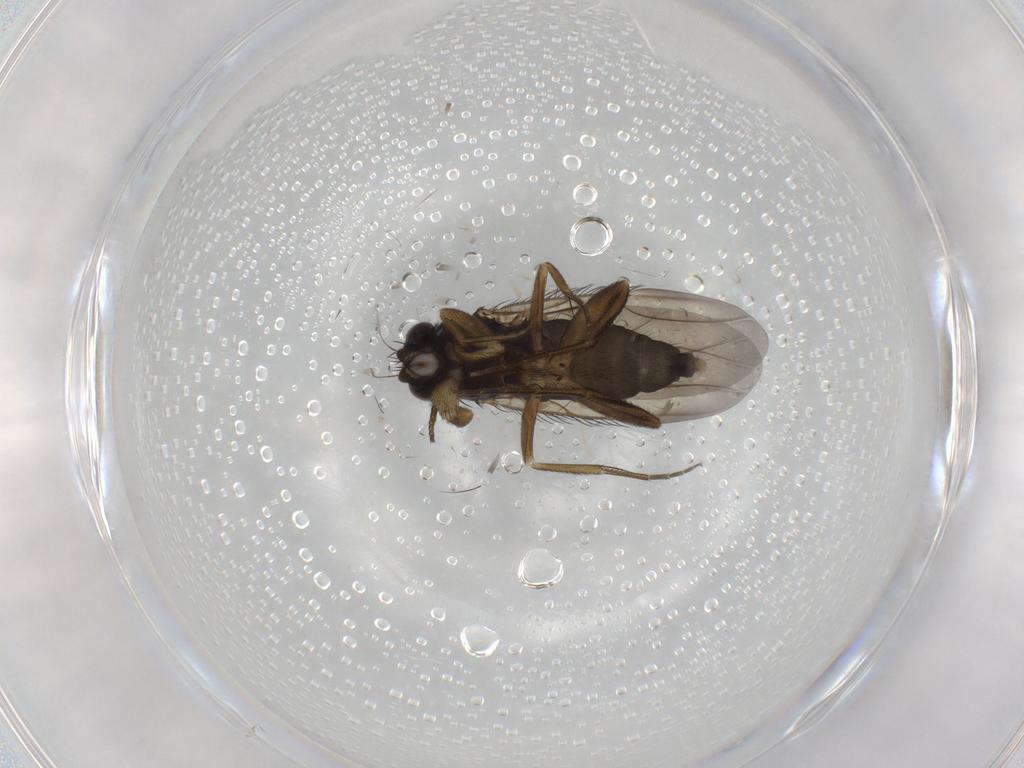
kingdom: Animalia
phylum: Arthropoda
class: Insecta
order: Diptera
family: Phoridae
